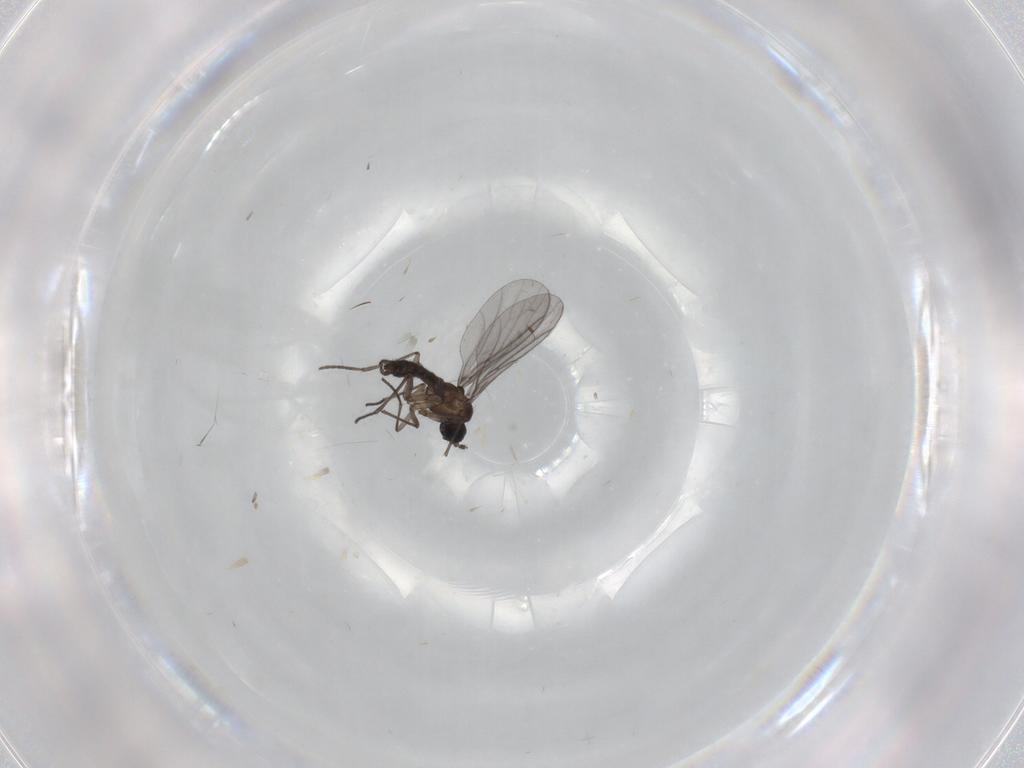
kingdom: Animalia
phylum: Arthropoda
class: Insecta
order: Diptera
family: Sciaridae
